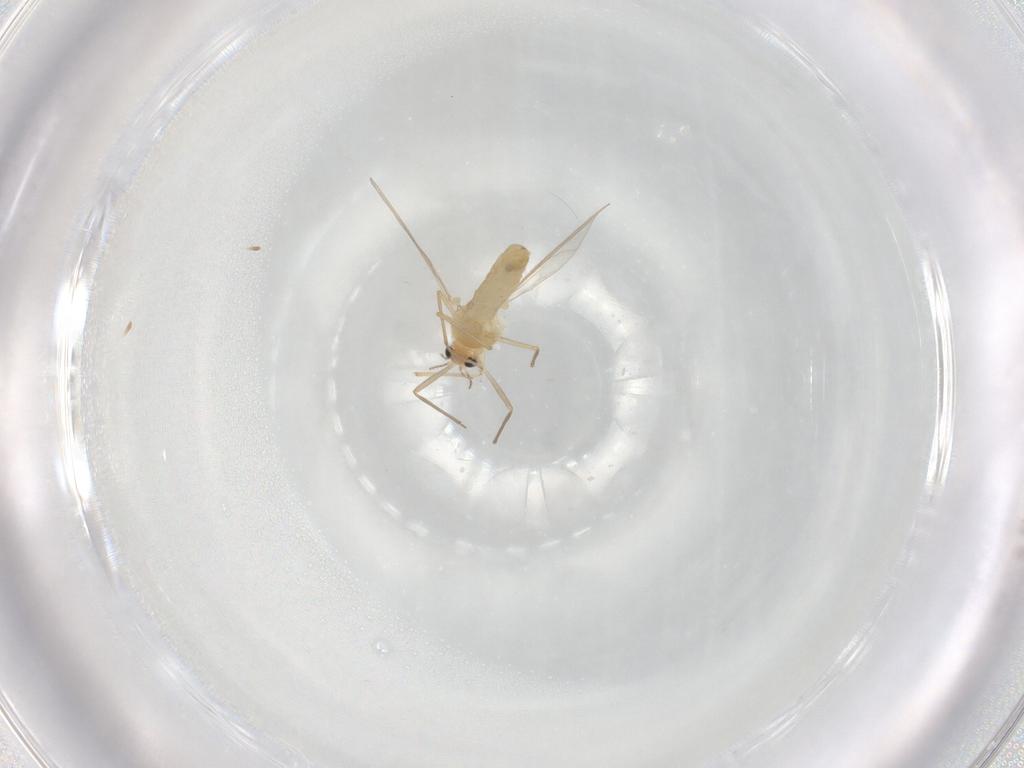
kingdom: Animalia
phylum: Arthropoda
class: Insecta
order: Diptera
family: Chironomidae
